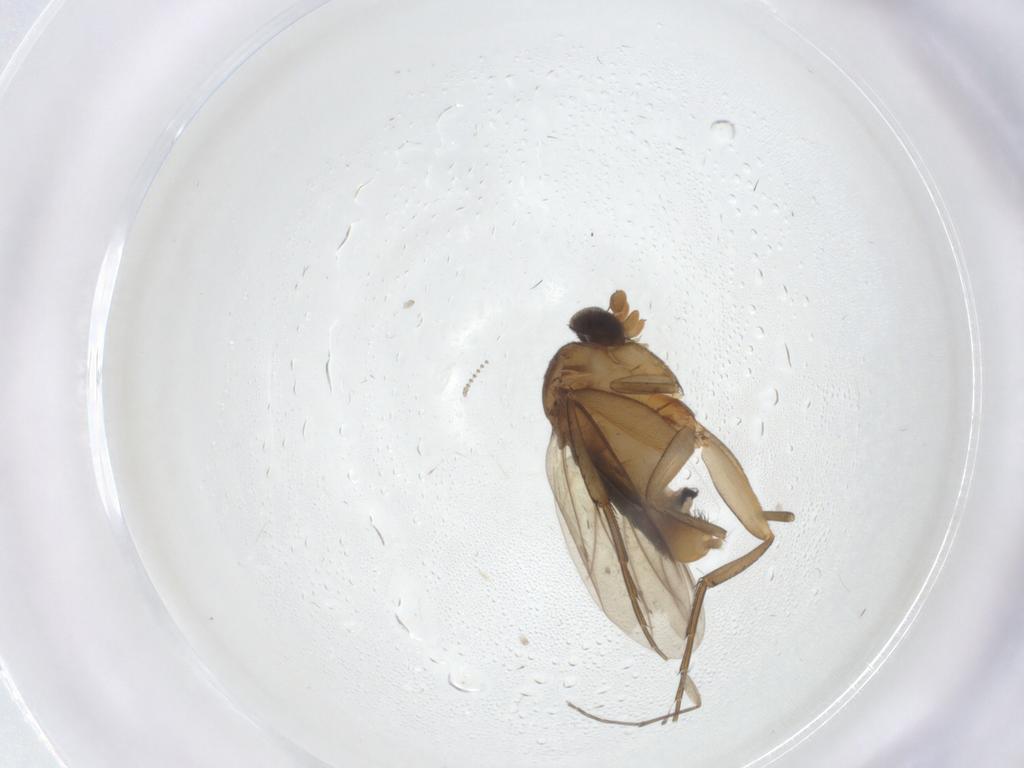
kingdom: Animalia
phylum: Arthropoda
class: Insecta
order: Diptera
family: Phoridae
